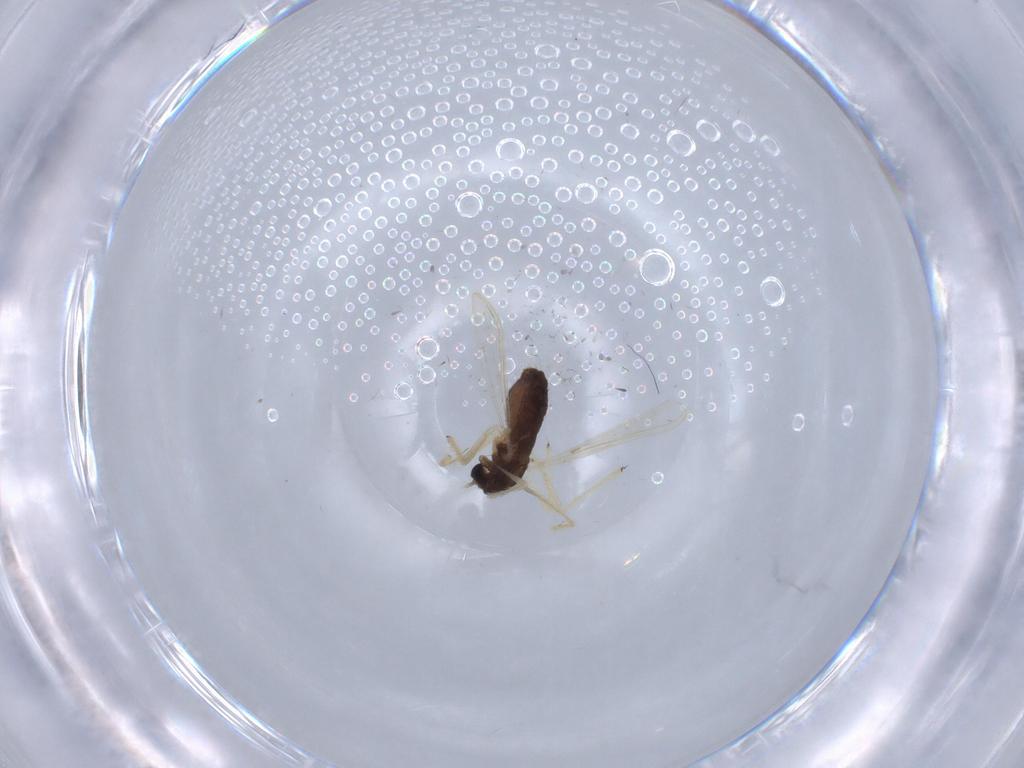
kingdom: Animalia
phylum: Arthropoda
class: Insecta
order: Diptera
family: Chironomidae
